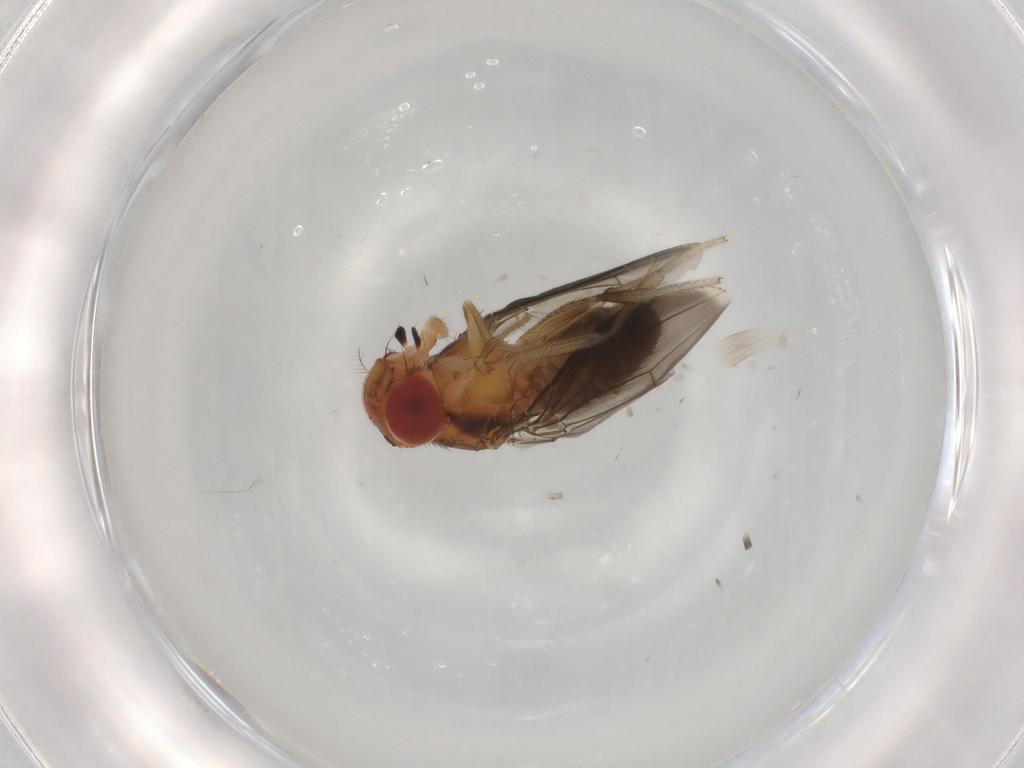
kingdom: Animalia
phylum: Arthropoda
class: Insecta
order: Diptera
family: Drosophilidae
